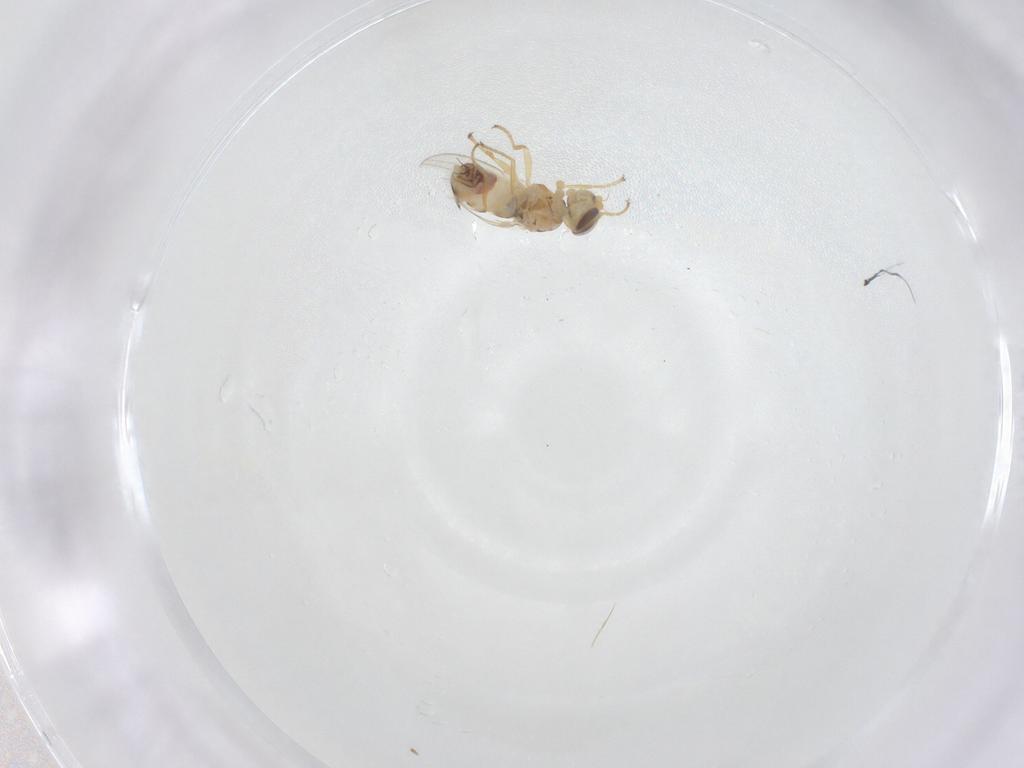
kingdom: Animalia
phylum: Arthropoda
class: Insecta
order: Diptera
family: Chyromyidae
